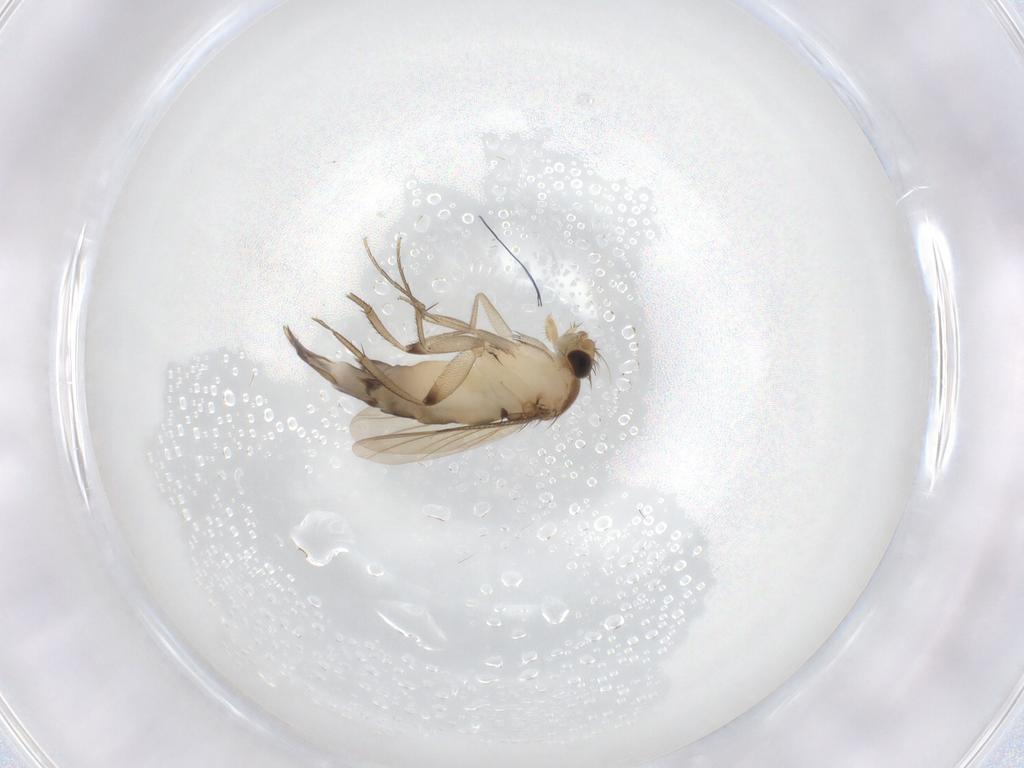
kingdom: Animalia
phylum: Arthropoda
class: Insecta
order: Diptera
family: Phoridae
